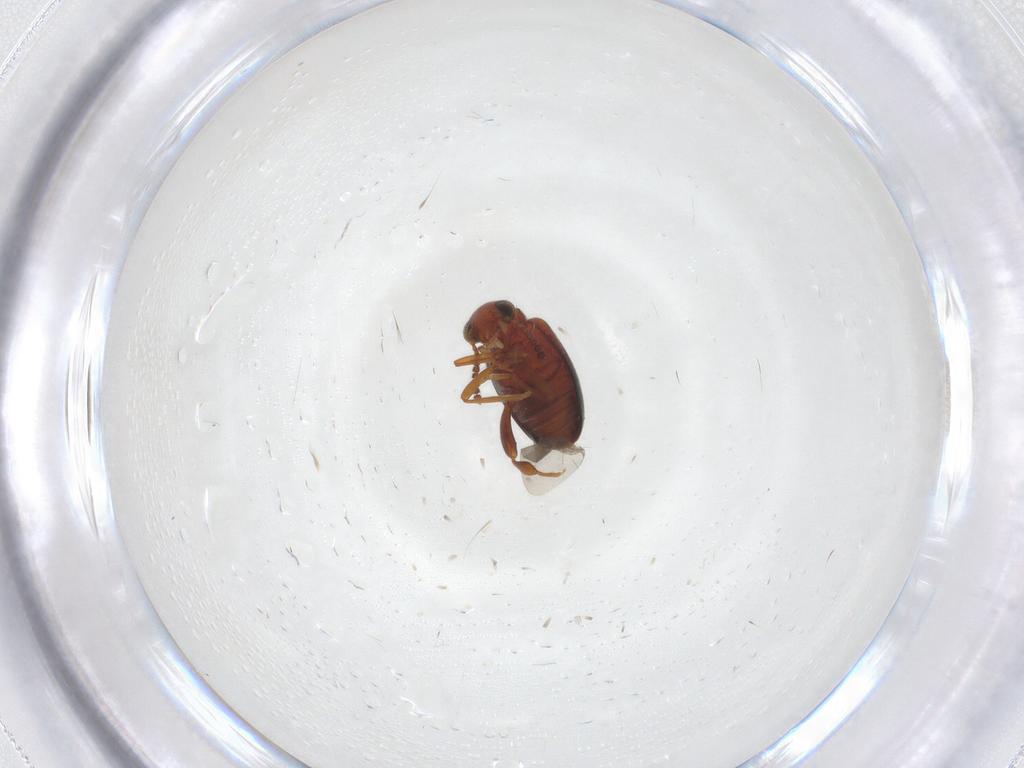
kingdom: Animalia
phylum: Arthropoda
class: Insecta
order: Coleoptera
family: Aderidae
